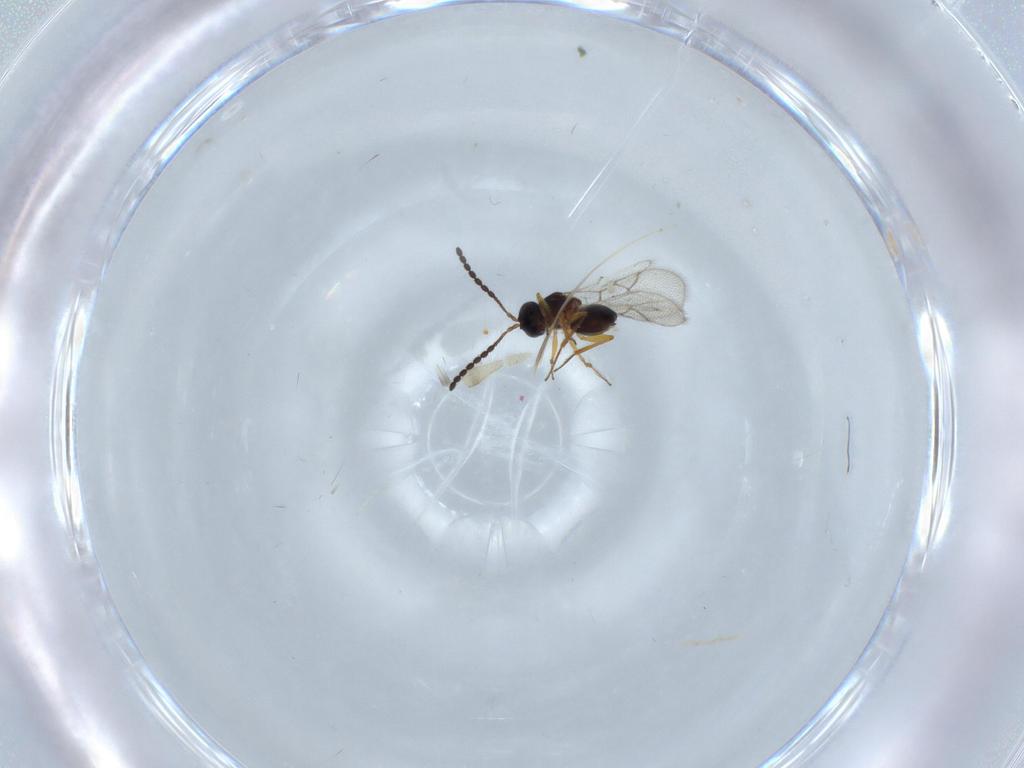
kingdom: Animalia
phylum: Arthropoda
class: Insecta
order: Hymenoptera
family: Figitidae
